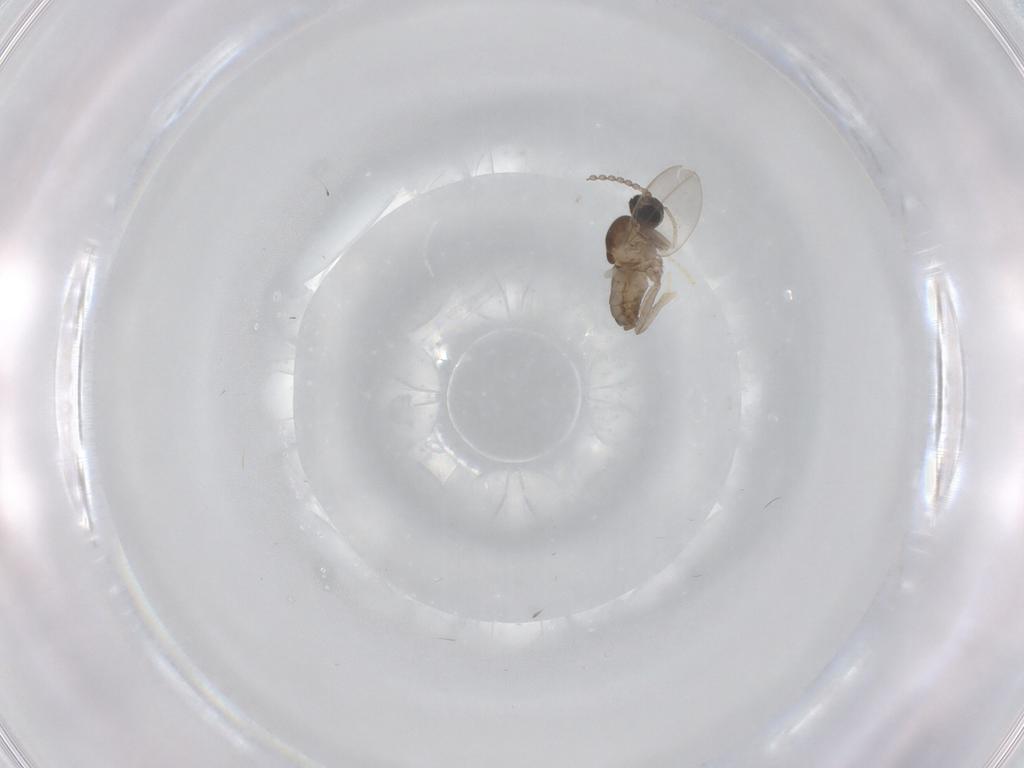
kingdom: Animalia
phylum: Arthropoda
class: Insecta
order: Diptera
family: Cecidomyiidae
